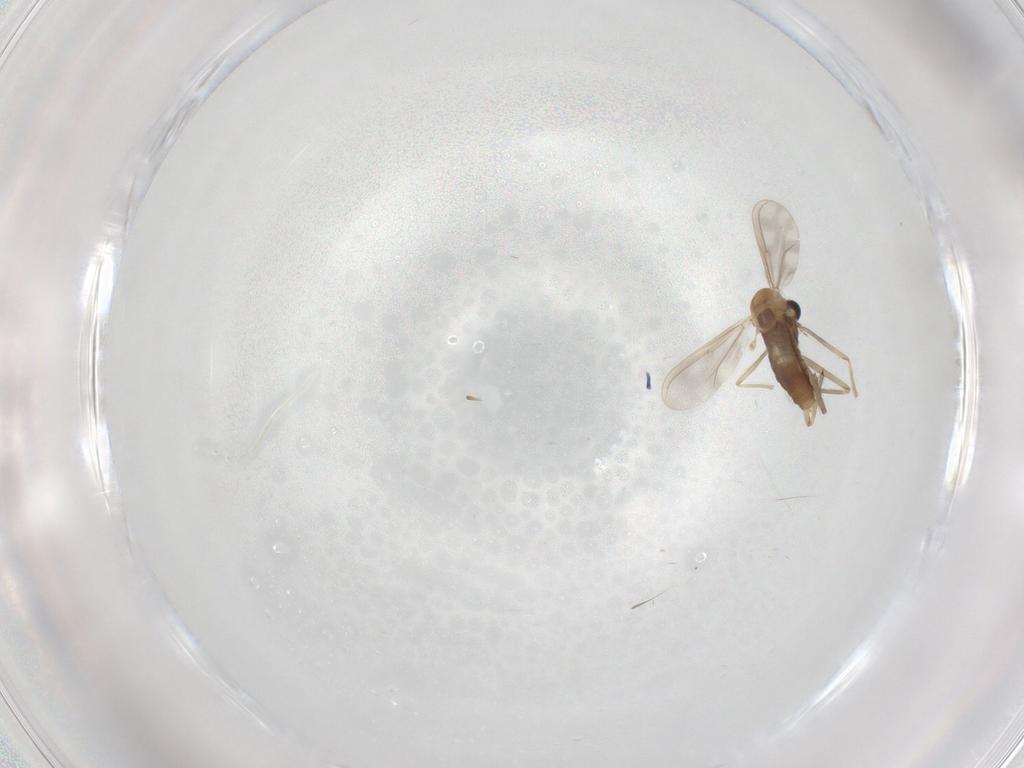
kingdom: Animalia
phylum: Arthropoda
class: Insecta
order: Diptera
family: Chironomidae
